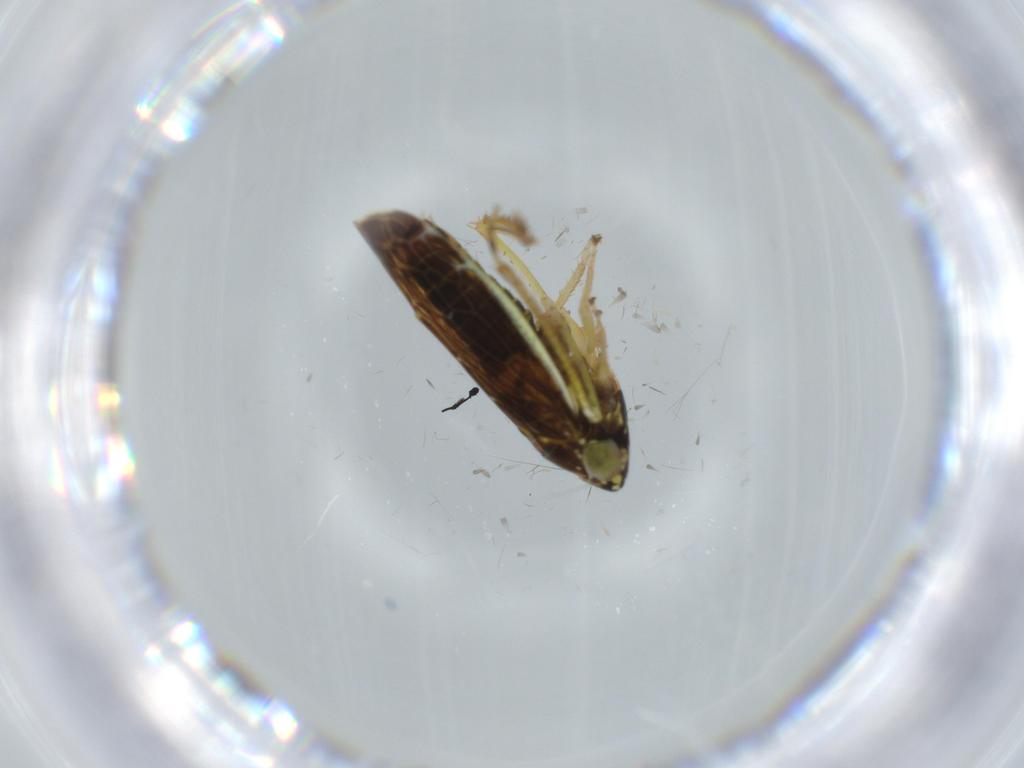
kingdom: Animalia
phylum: Arthropoda
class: Insecta
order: Hemiptera
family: Cicadellidae
